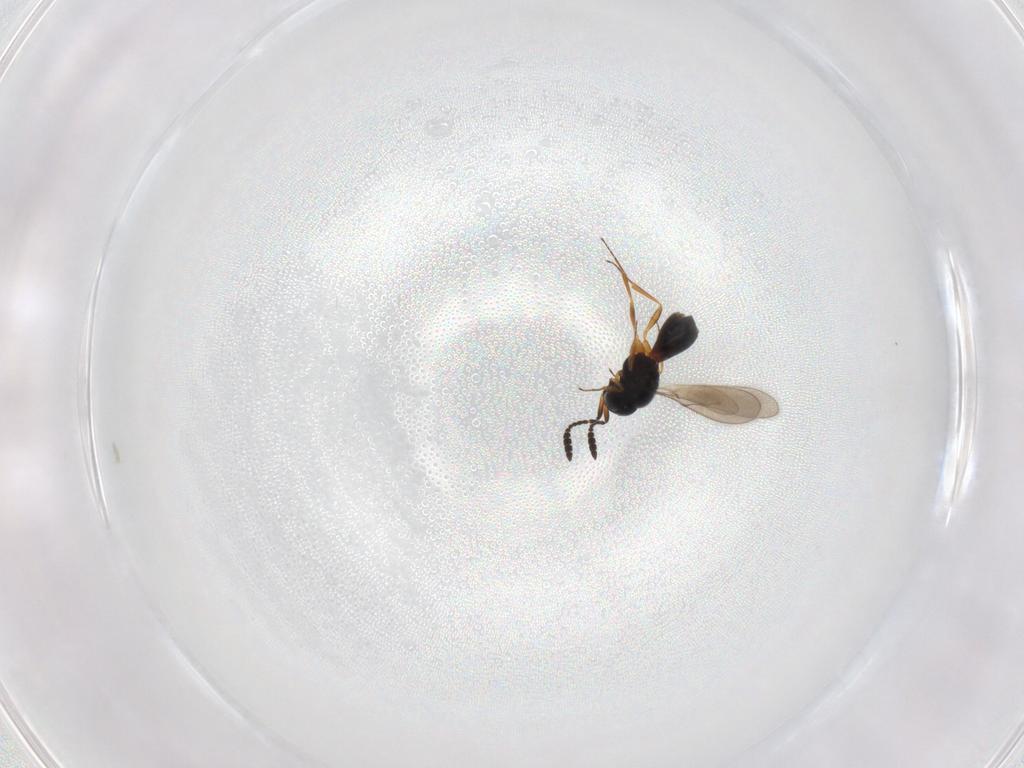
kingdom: Animalia
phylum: Arthropoda
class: Insecta
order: Hymenoptera
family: Scelionidae
